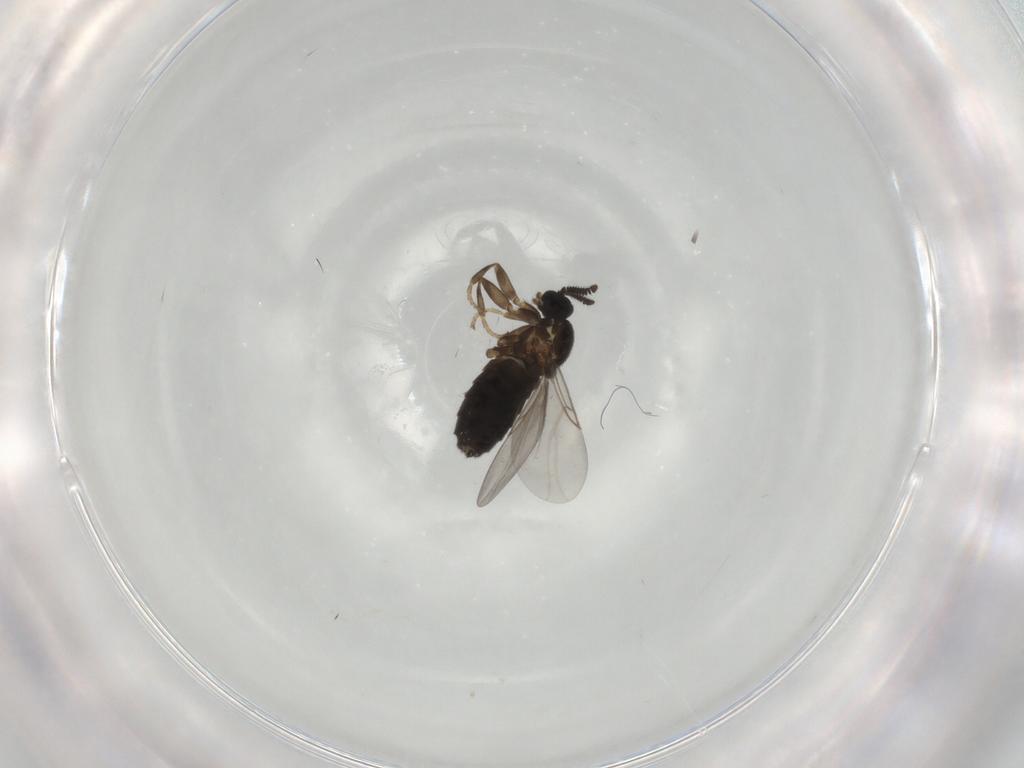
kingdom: Animalia
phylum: Arthropoda
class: Insecta
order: Diptera
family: Scatopsidae
